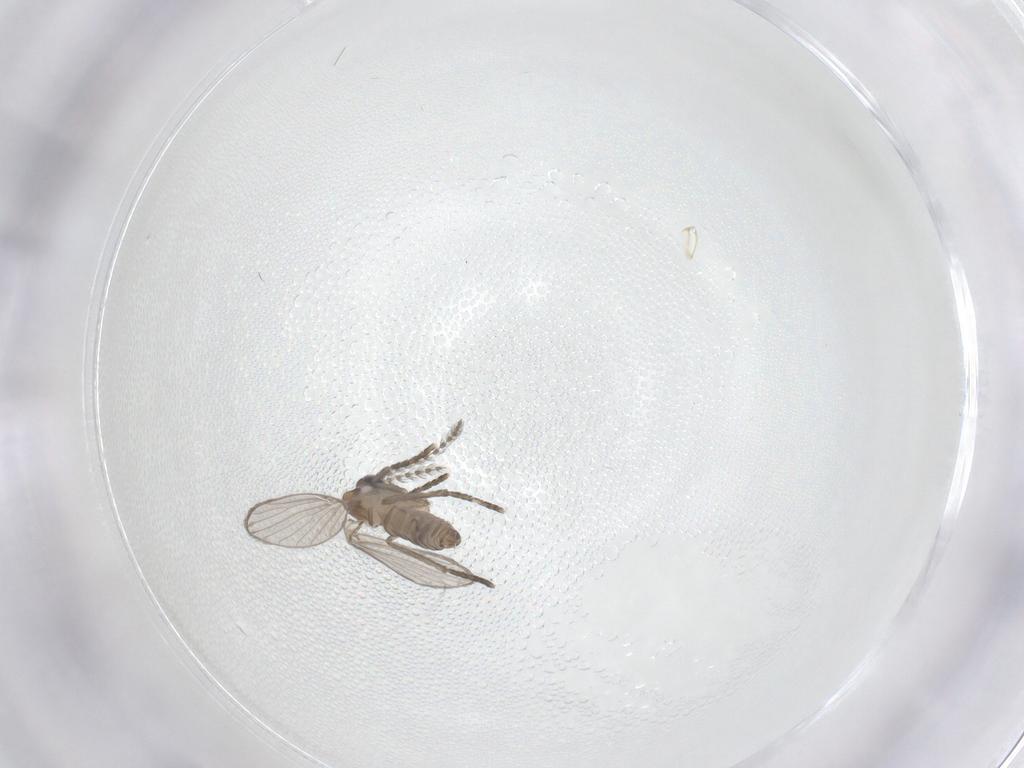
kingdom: Animalia
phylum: Arthropoda
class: Insecta
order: Diptera
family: Psychodidae
